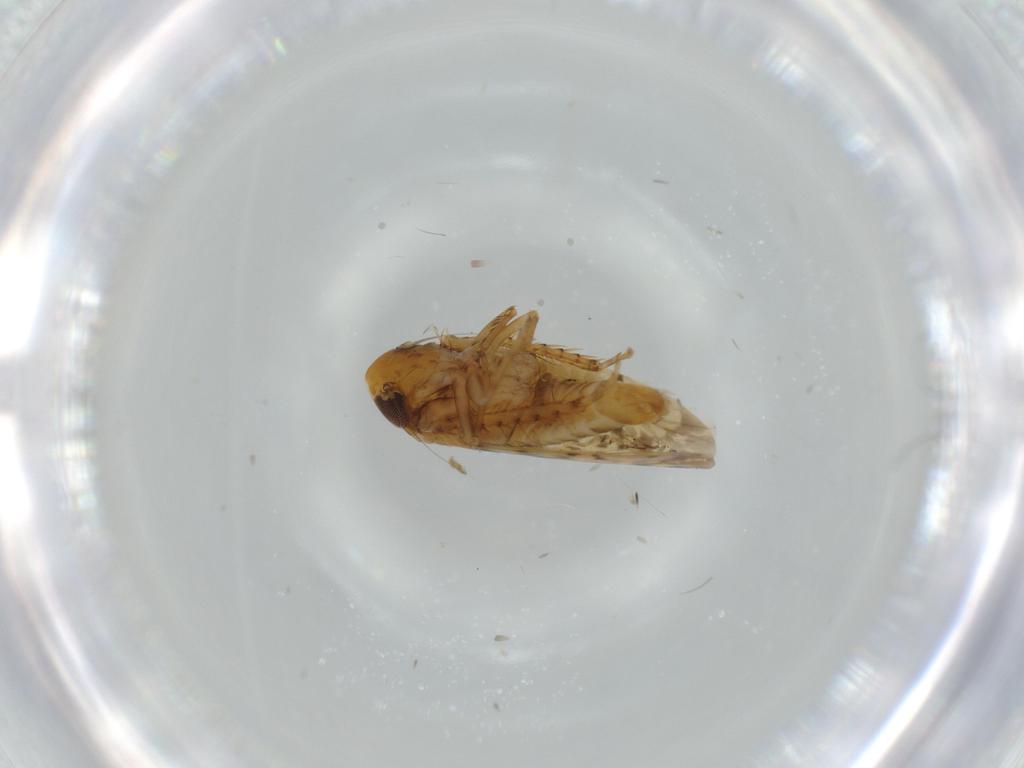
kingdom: Animalia
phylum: Arthropoda
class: Insecta
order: Hemiptera
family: Cicadellidae
